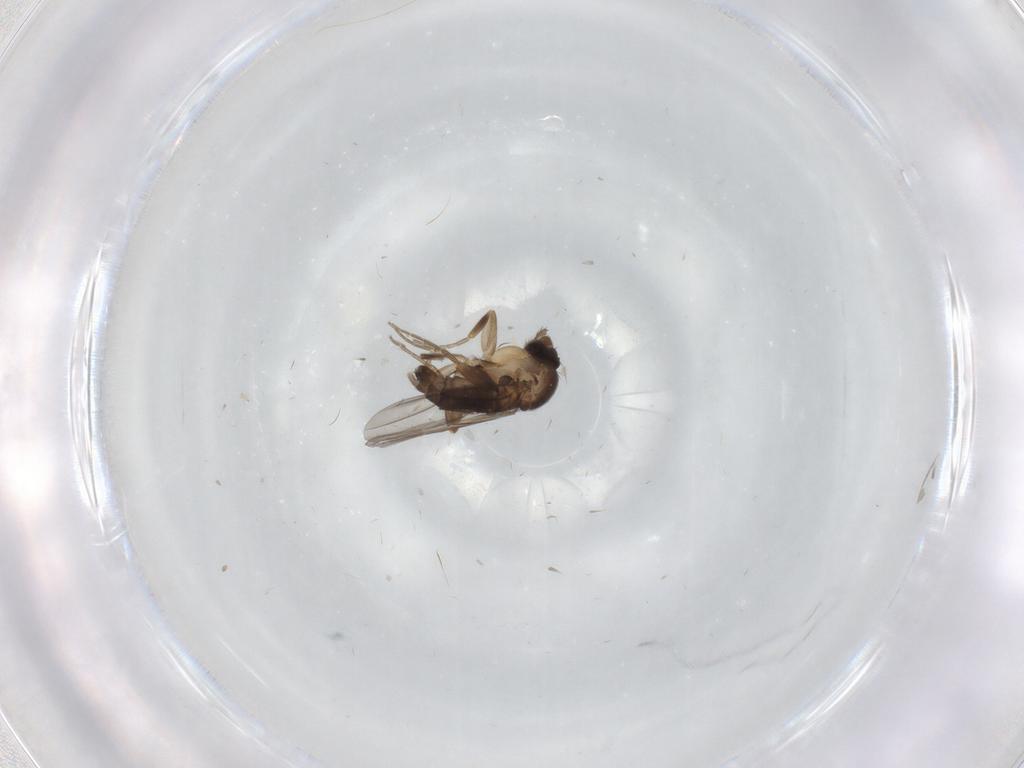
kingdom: Animalia
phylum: Arthropoda
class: Insecta
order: Diptera
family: Phoridae
